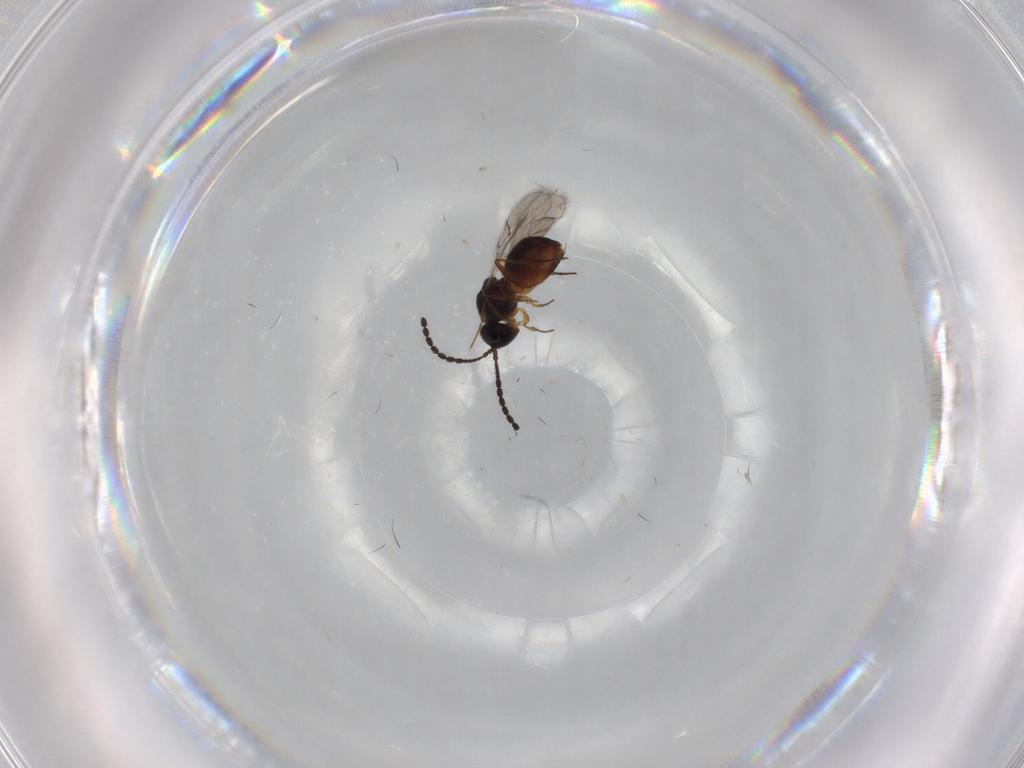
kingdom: Animalia
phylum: Arthropoda
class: Insecta
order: Hymenoptera
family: Figitidae
